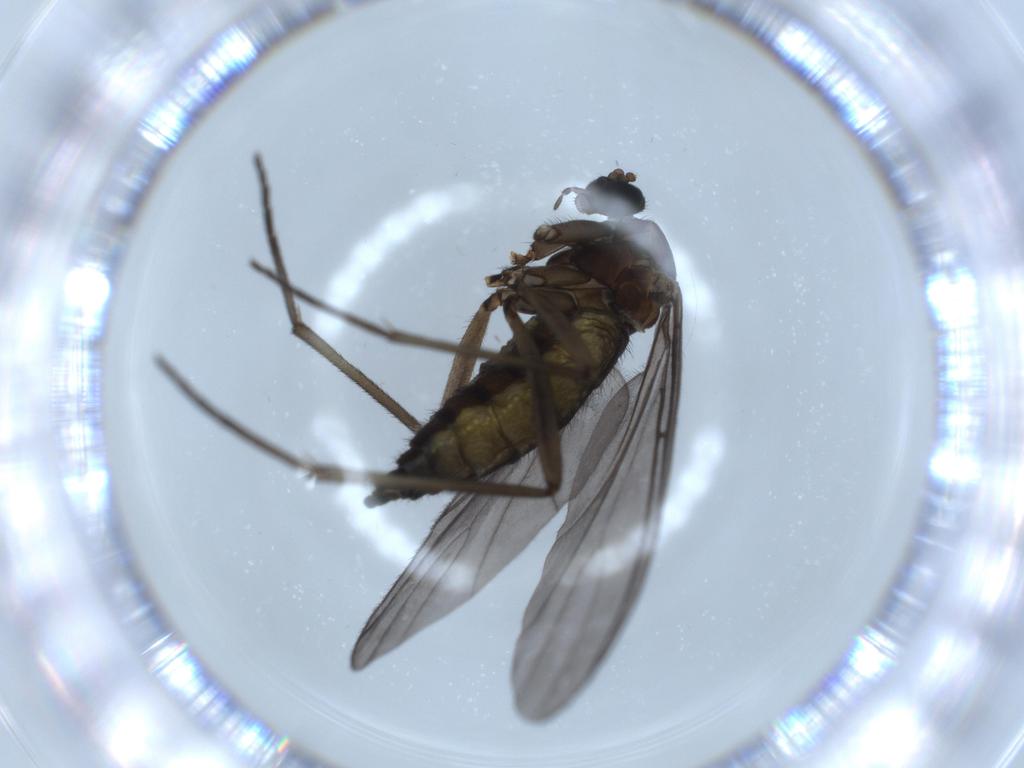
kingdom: Animalia
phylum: Arthropoda
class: Insecta
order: Diptera
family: Sciaridae
